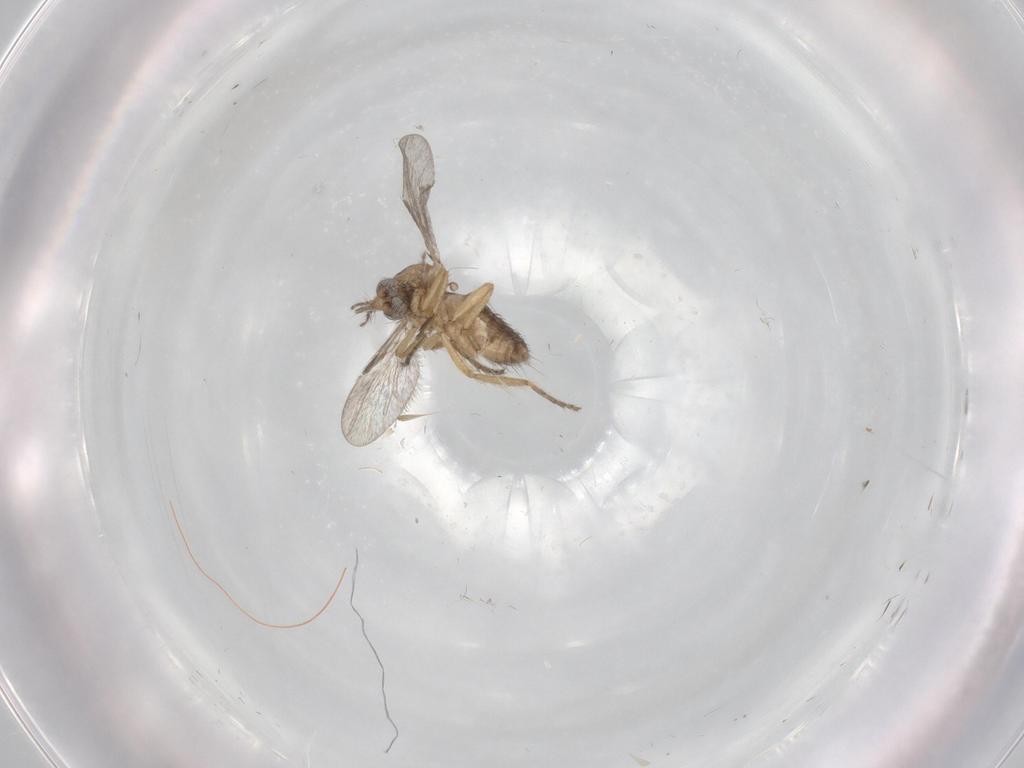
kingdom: Animalia
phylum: Arthropoda
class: Insecta
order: Diptera
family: Ceratopogonidae
